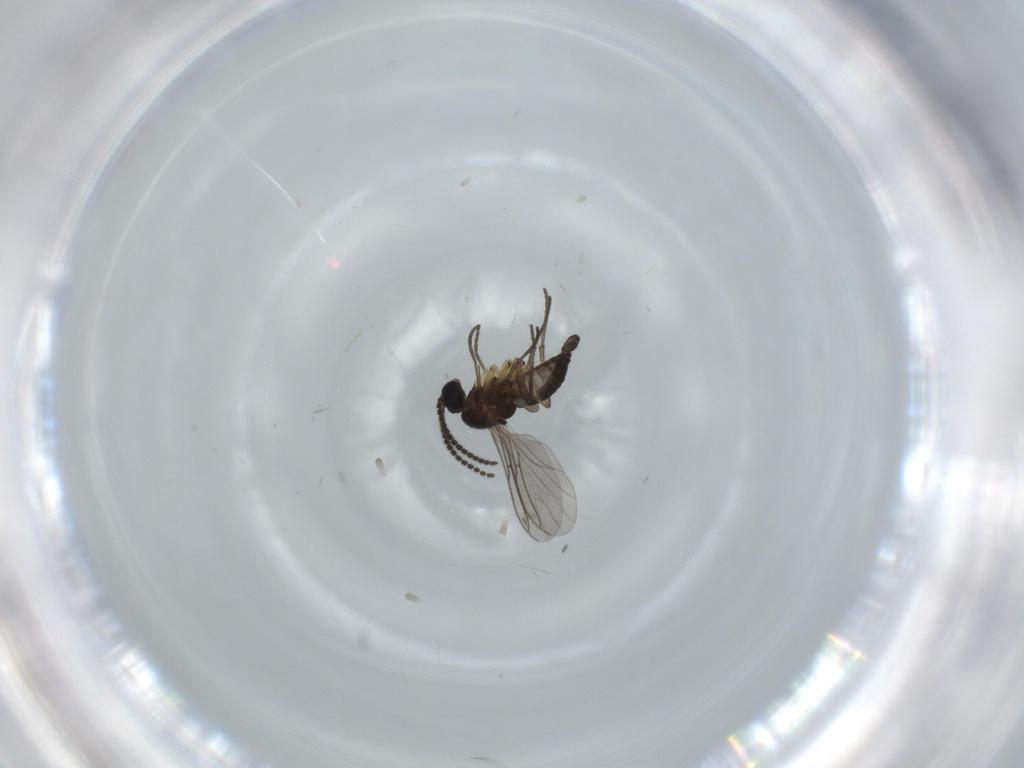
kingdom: Animalia
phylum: Arthropoda
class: Insecta
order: Diptera
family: Sciaridae
